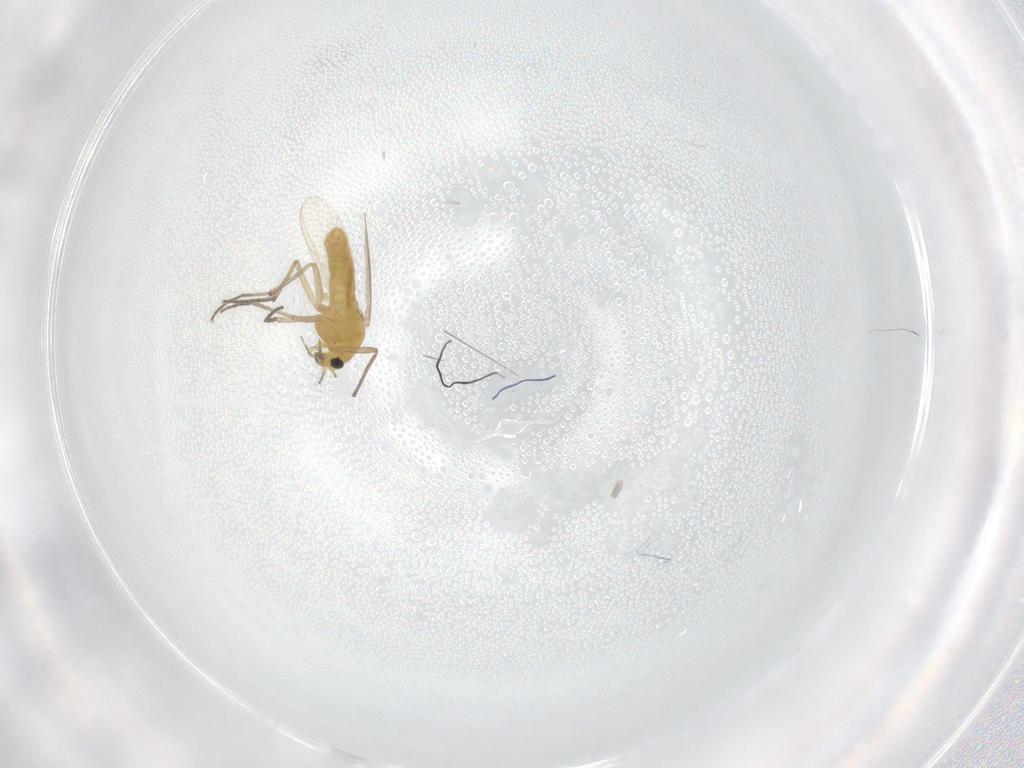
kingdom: Animalia
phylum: Arthropoda
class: Insecta
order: Diptera
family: Chironomidae
